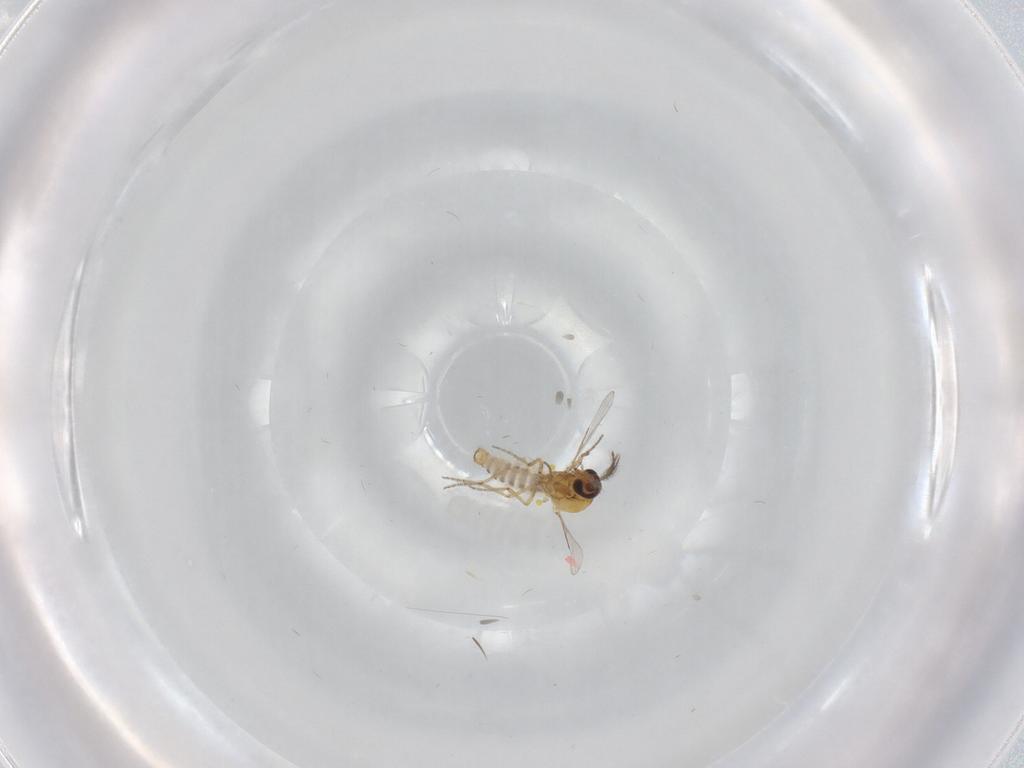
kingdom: Animalia
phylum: Arthropoda
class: Insecta
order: Diptera
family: Ceratopogonidae
